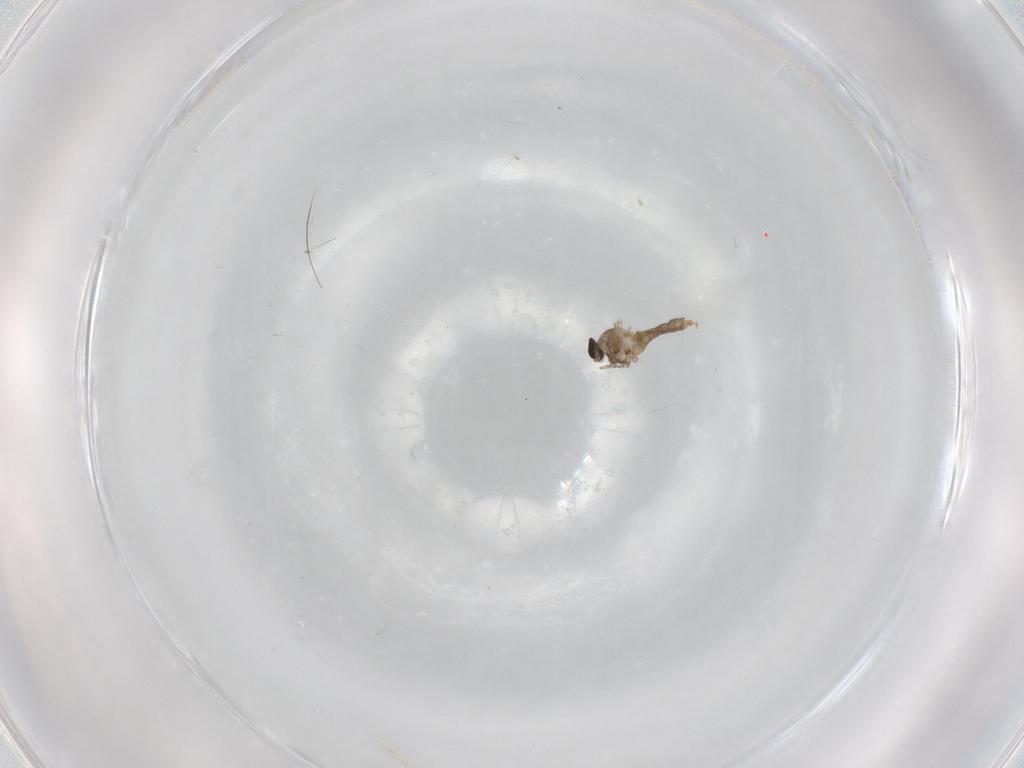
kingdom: Animalia
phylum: Arthropoda
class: Insecta
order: Diptera
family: Cecidomyiidae
